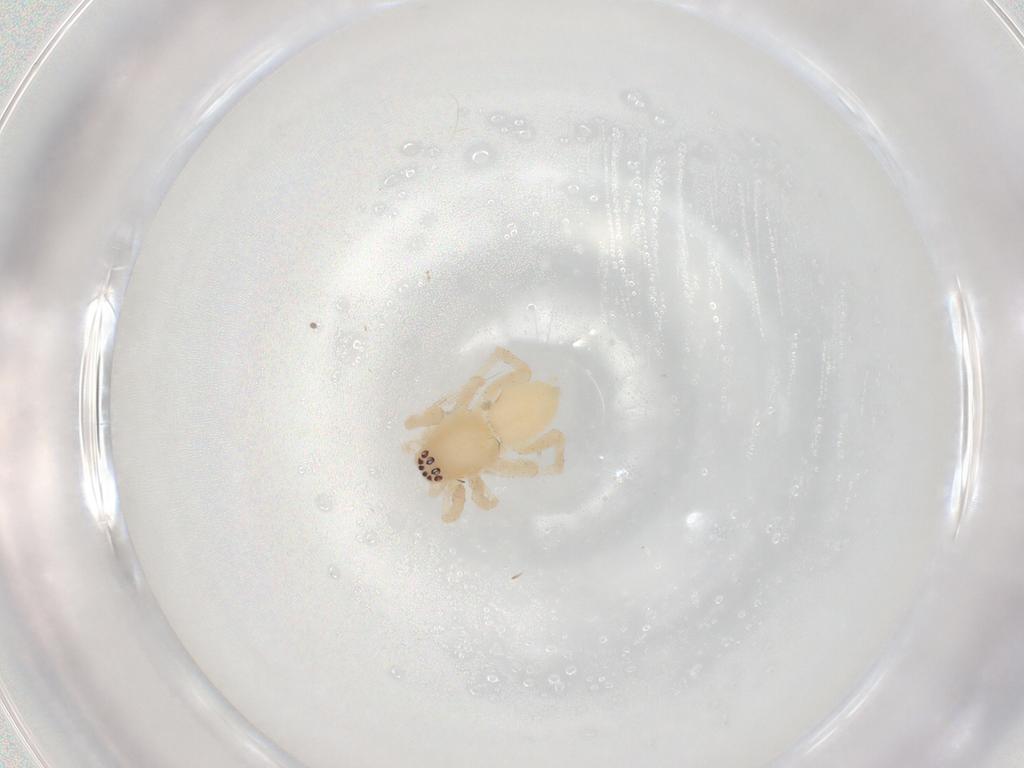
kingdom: Animalia
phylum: Arthropoda
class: Arachnida
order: Araneae
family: Anyphaenidae
